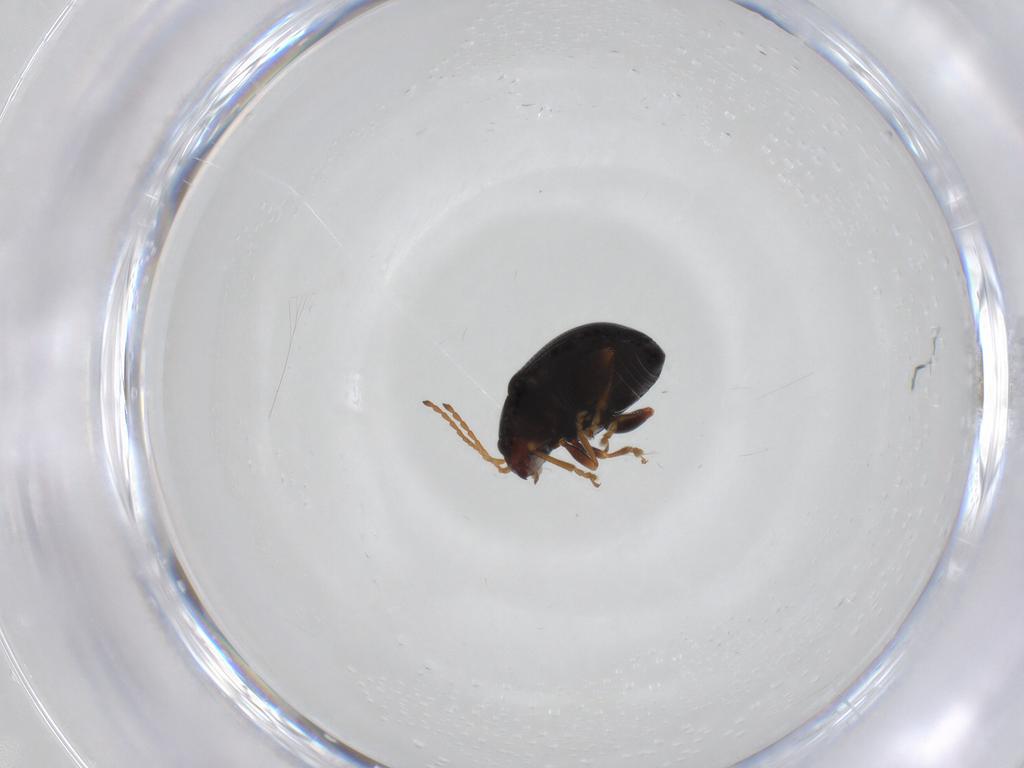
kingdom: Animalia
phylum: Arthropoda
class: Insecta
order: Coleoptera
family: Chrysomelidae
